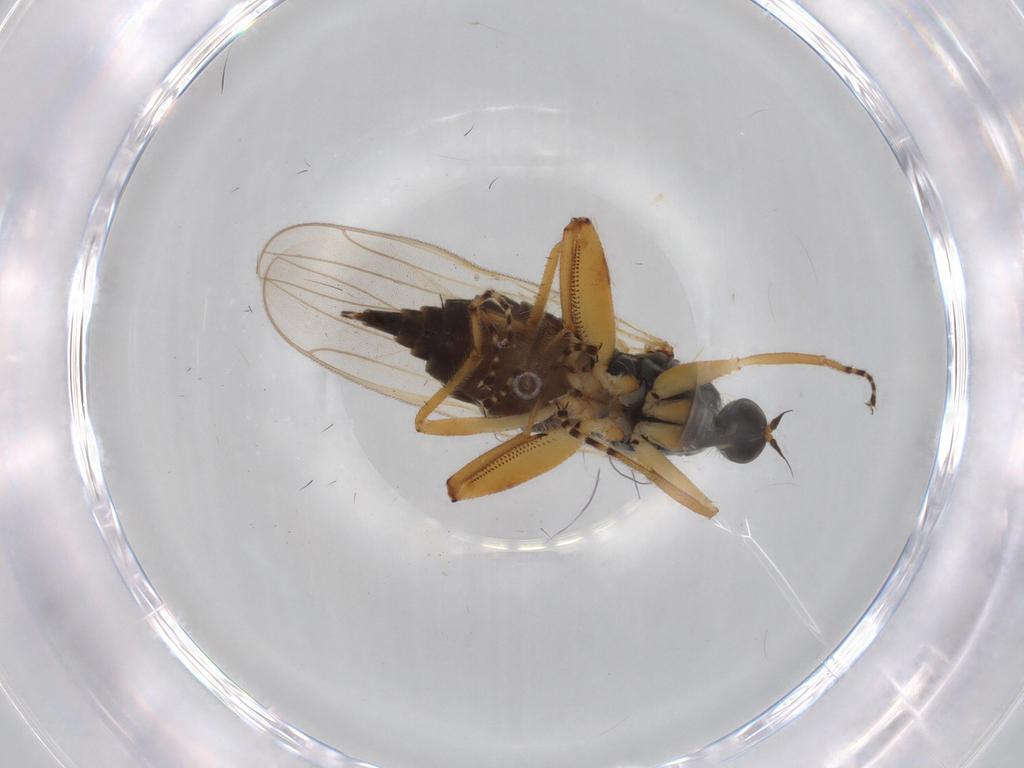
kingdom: Animalia
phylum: Arthropoda
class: Insecta
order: Diptera
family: Hybotidae
